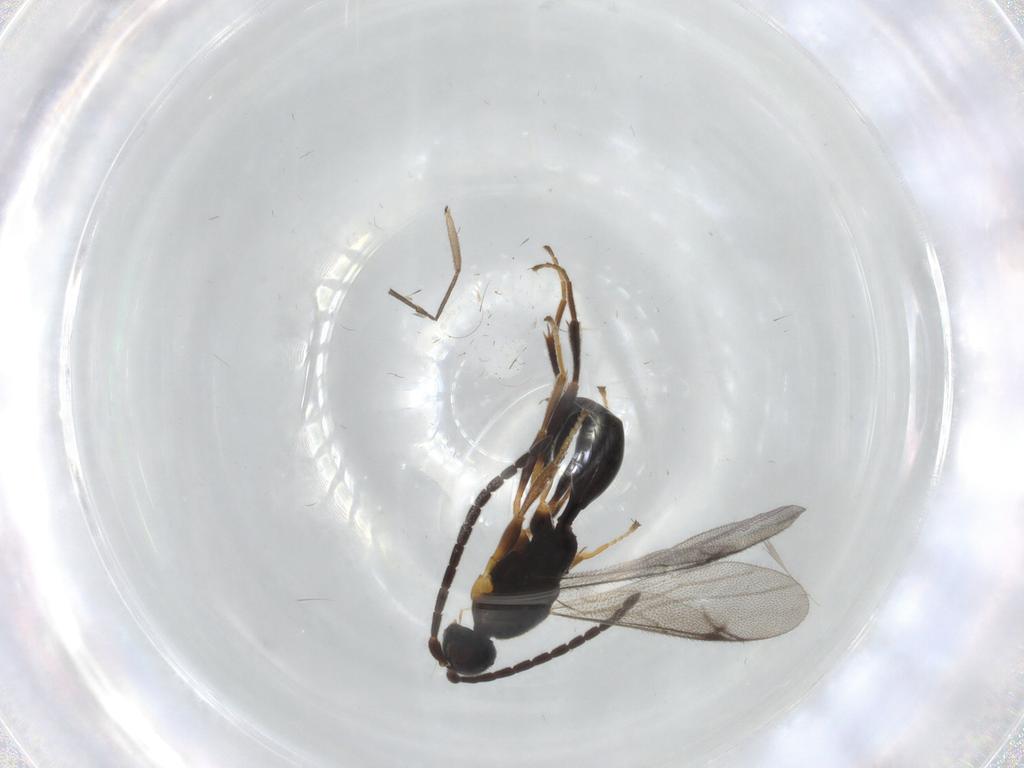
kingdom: Animalia
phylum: Arthropoda
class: Insecta
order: Hymenoptera
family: Proctotrupidae
